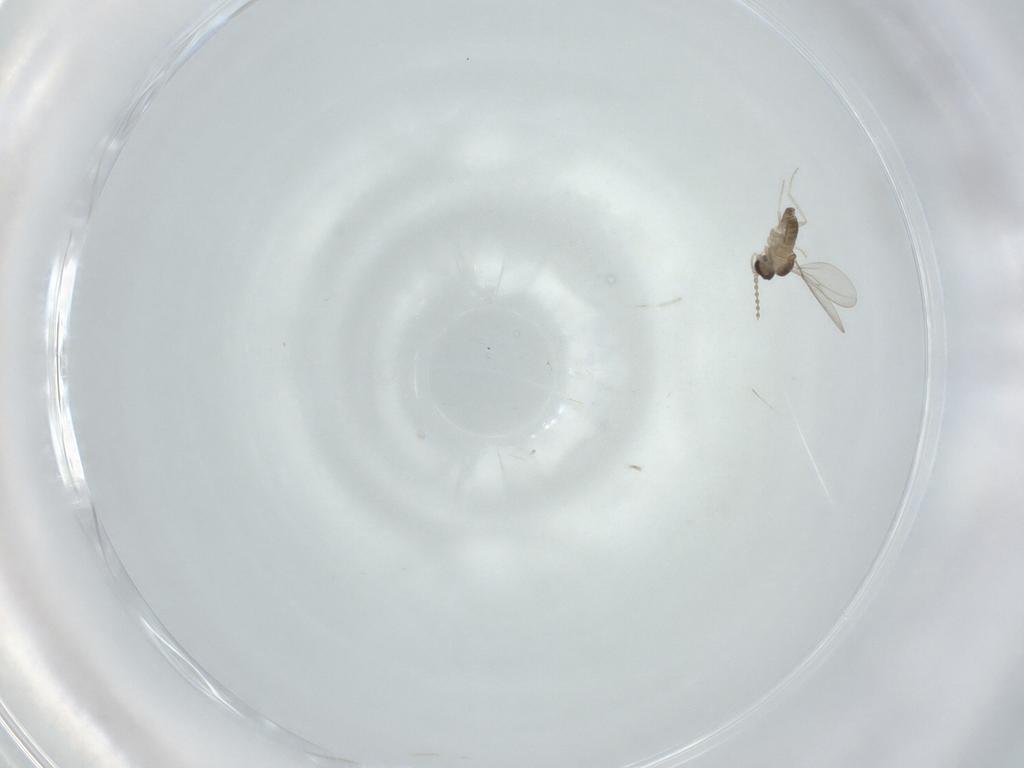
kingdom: Animalia
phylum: Arthropoda
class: Insecta
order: Diptera
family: Cecidomyiidae
